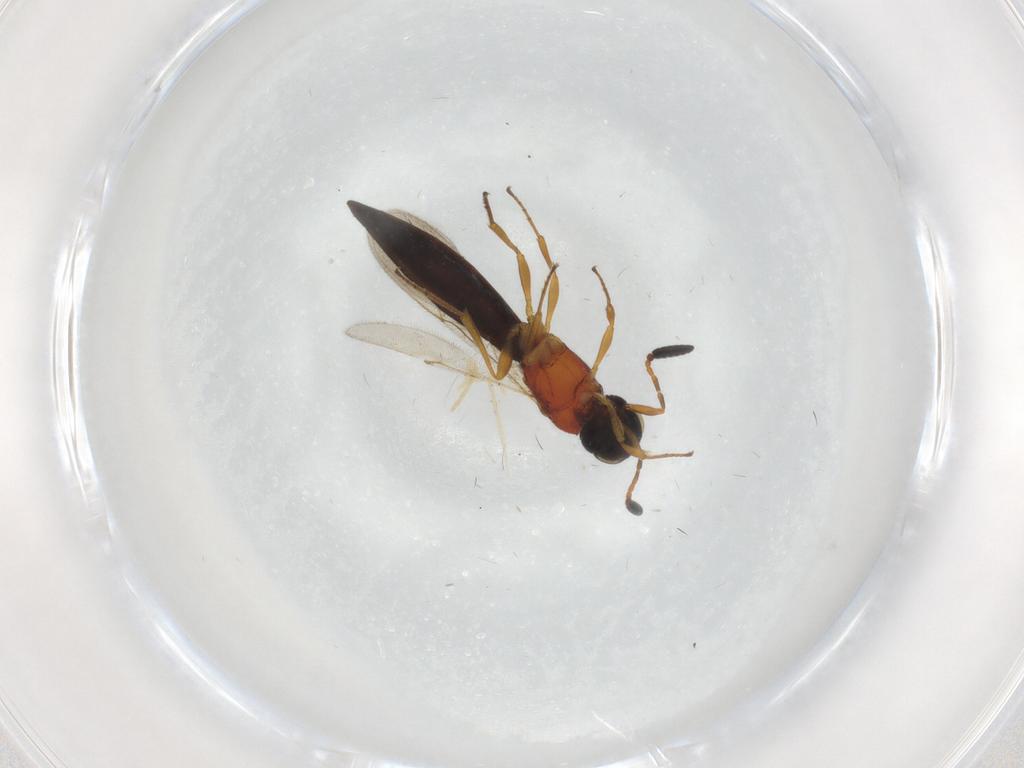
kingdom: Animalia
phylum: Arthropoda
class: Insecta
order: Hymenoptera
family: Scelionidae
